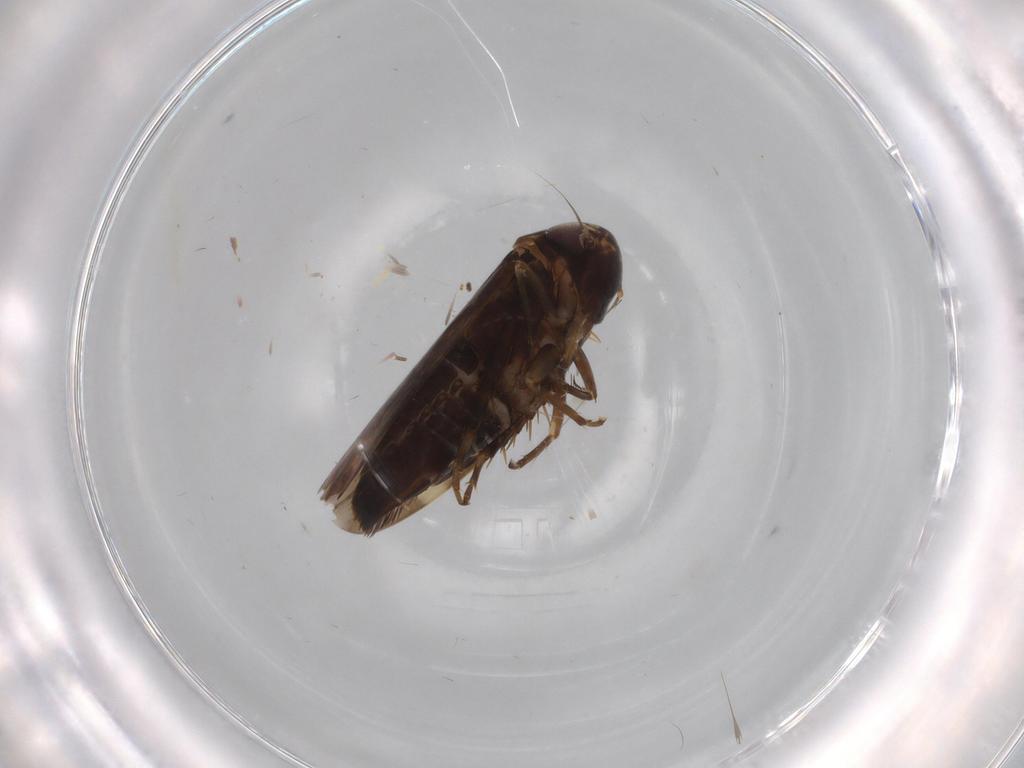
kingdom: Animalia
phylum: Arthropoda
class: Insecta
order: Hemiptera
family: Cicadellidae
